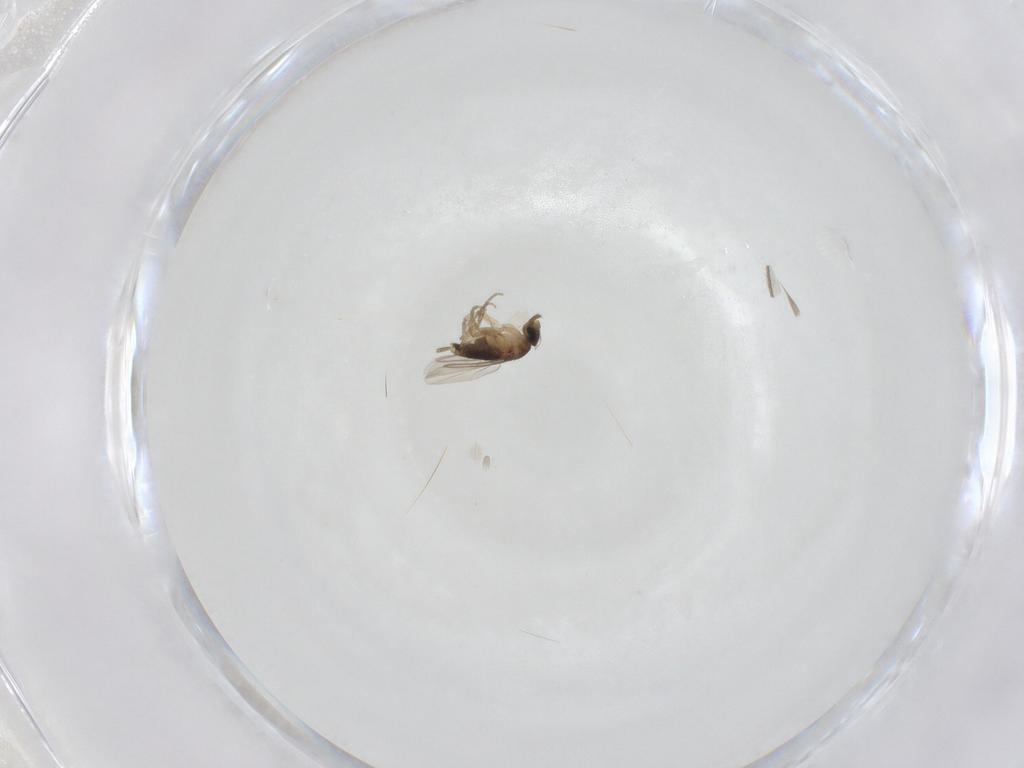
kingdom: Animalia
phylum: Arthropoda
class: Insecta
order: Diptera
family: Phoridae
